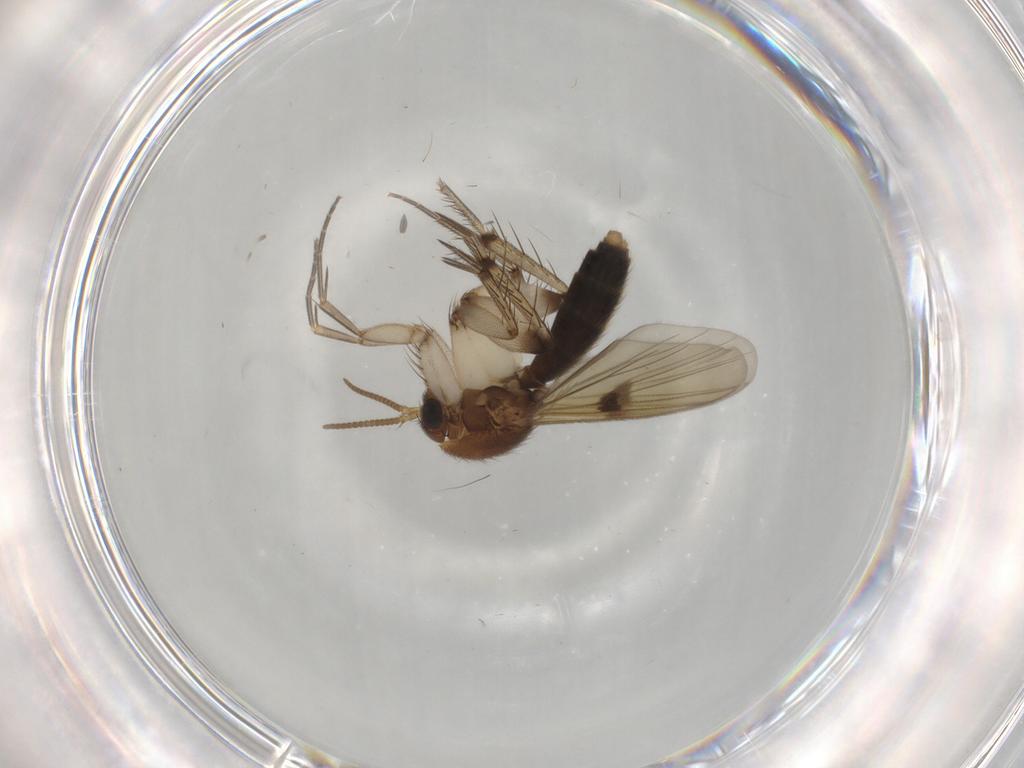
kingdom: Animalia
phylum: Arthropoda
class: Insecta
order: Diptera
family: Mycetophilidae
